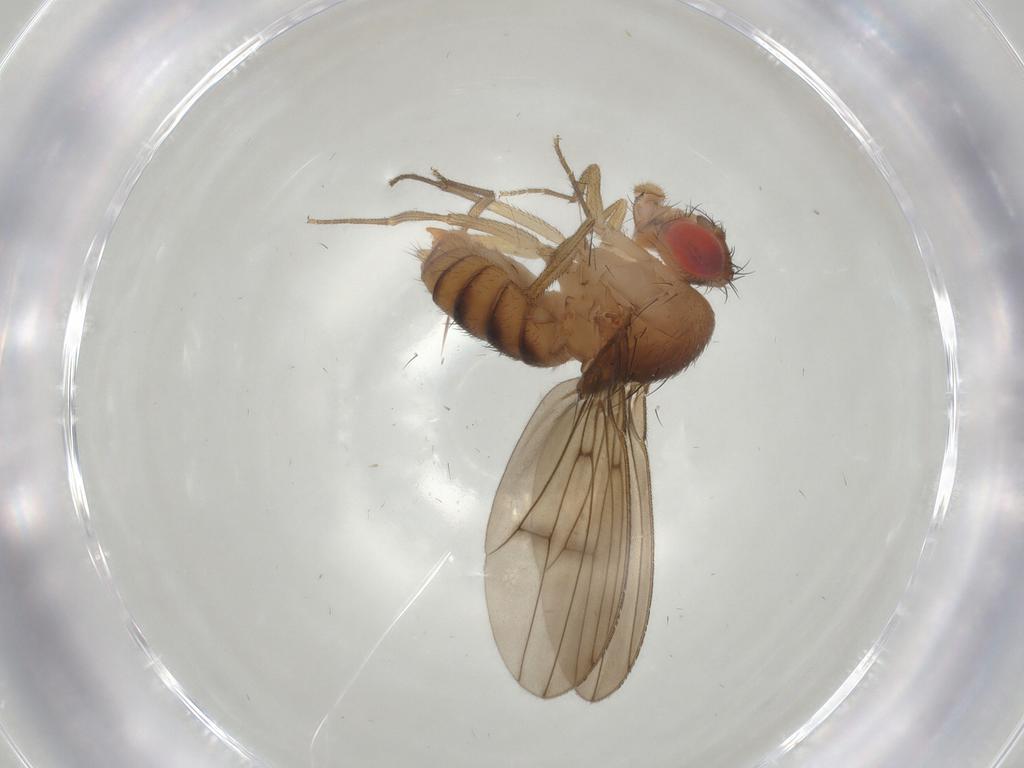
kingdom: Animalia
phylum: Arthropoda
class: Insecta
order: Diptera
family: Drosophilidae
